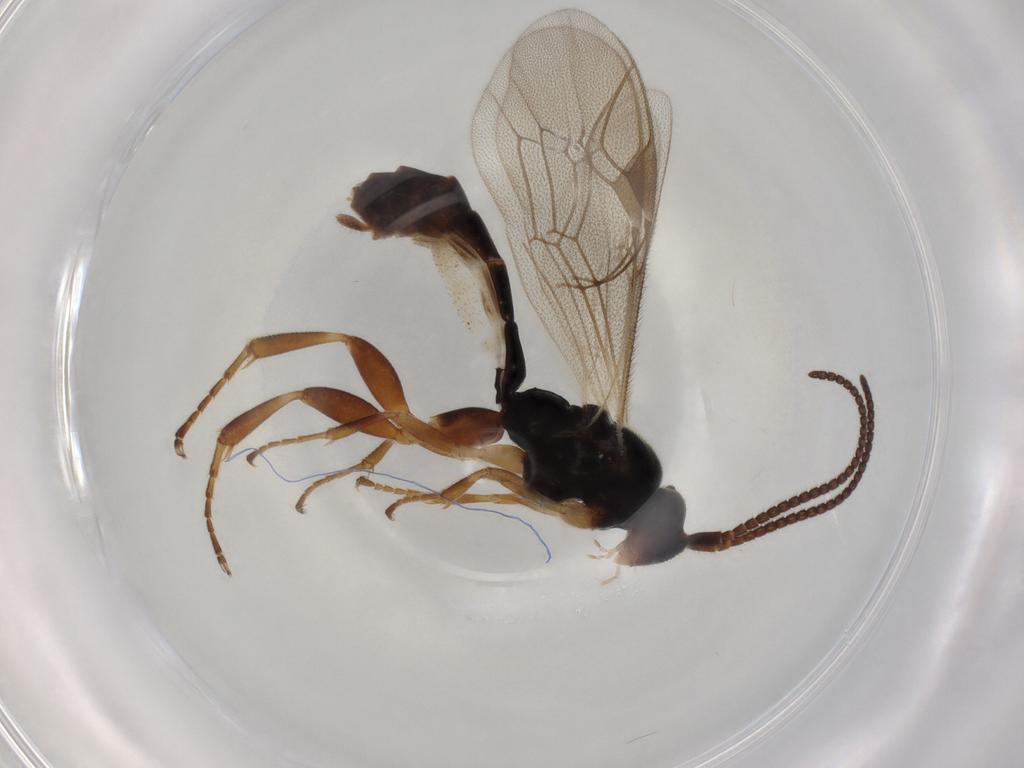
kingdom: Animalia
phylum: Arthropoda
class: Insecta
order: Hymenoptera
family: Ichneumonidae
